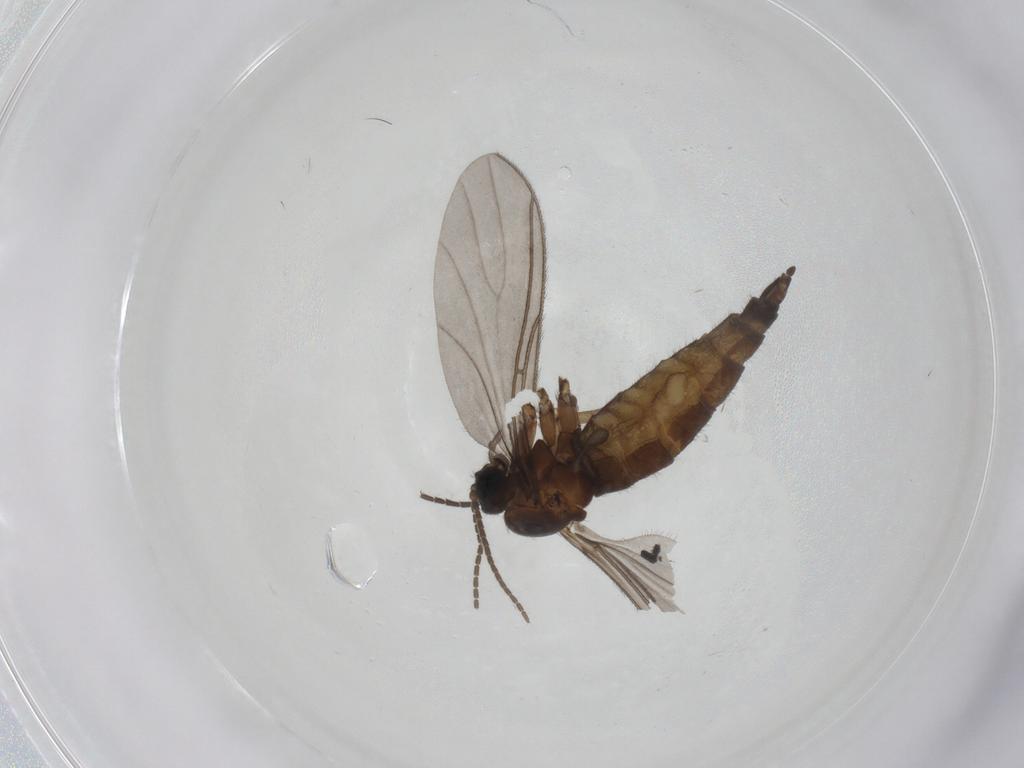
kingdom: Animalia
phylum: Arthropoda
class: Insecta
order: Diptera
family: Sciaridae
